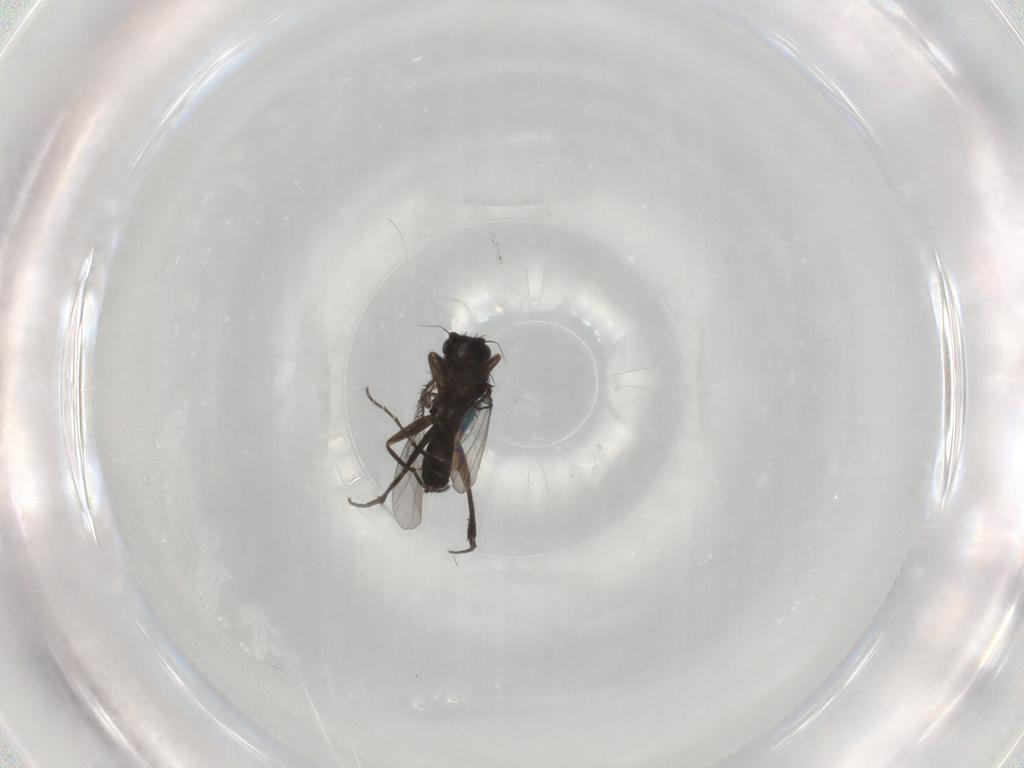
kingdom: Animalia
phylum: Arthropoda
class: Insecta
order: Diptera
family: Phoridae
